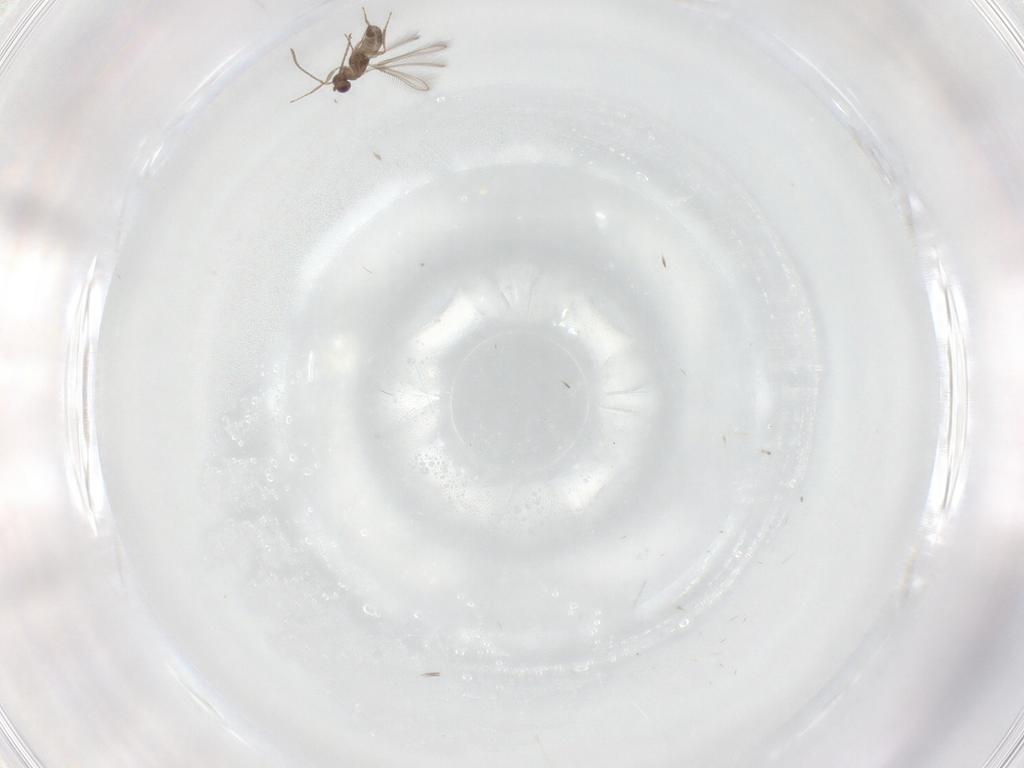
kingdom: Animalia
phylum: Arthropoda
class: Insecta
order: Hymenoptera
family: Mymaridae
